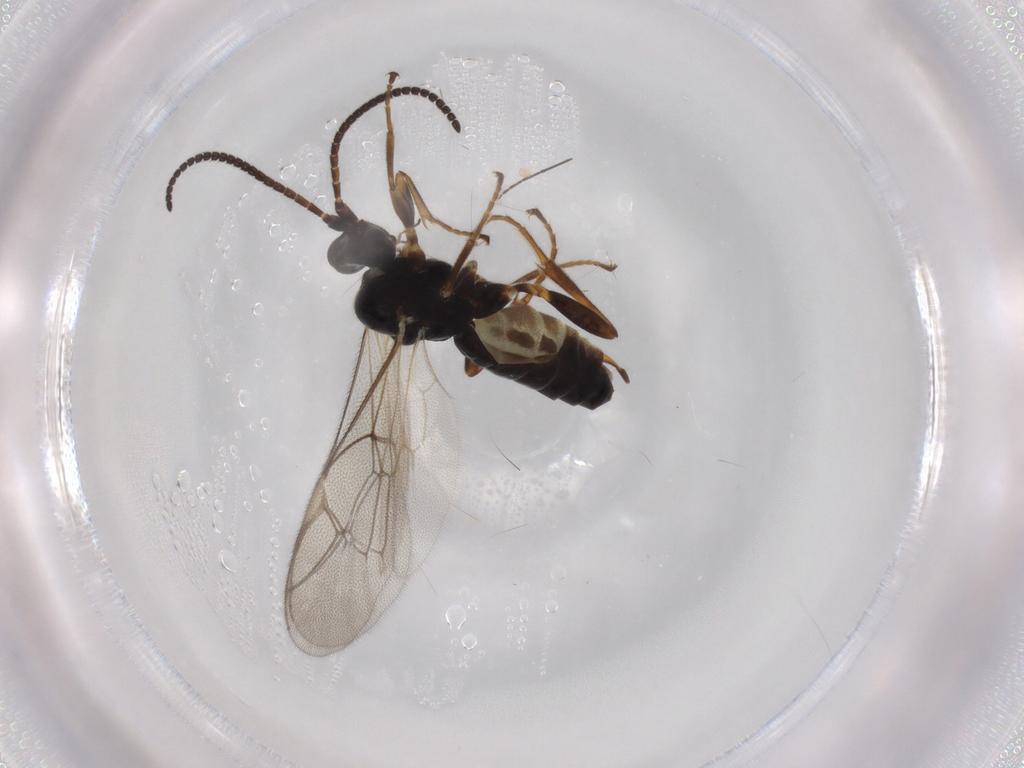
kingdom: Animalia
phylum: Arthropoda
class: Insecta
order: Hymenoptera
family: Ichneumonidae
